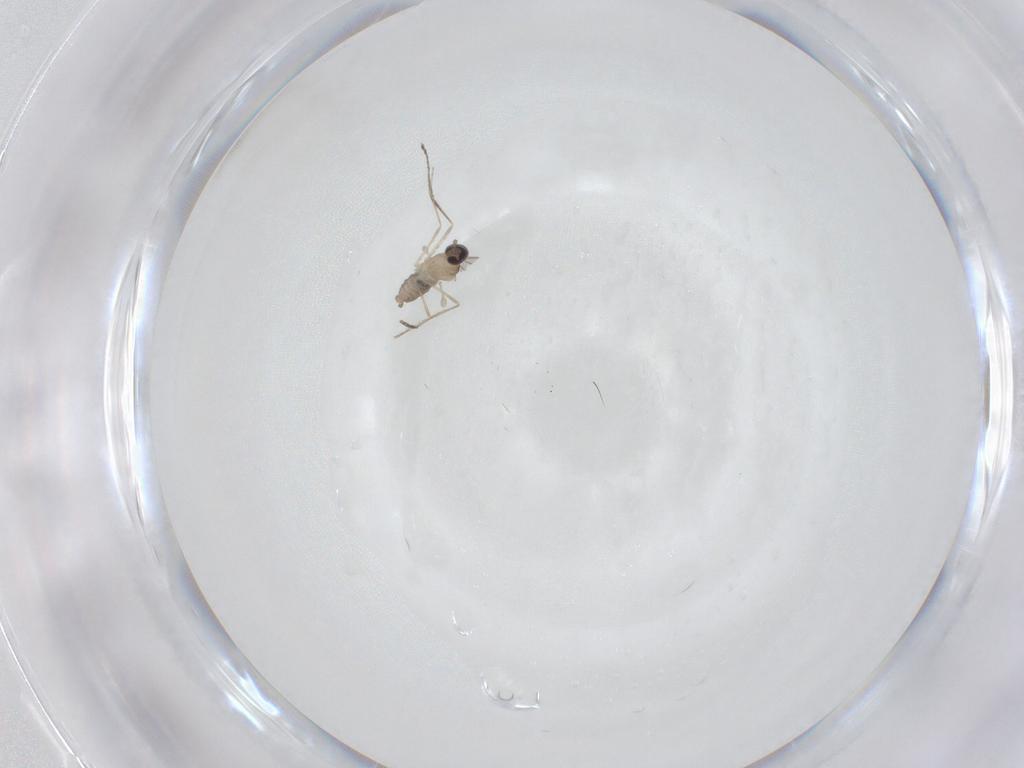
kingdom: Animalia
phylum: Arthropoda
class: Insecta
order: Diptera
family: Cecidomyiidae
